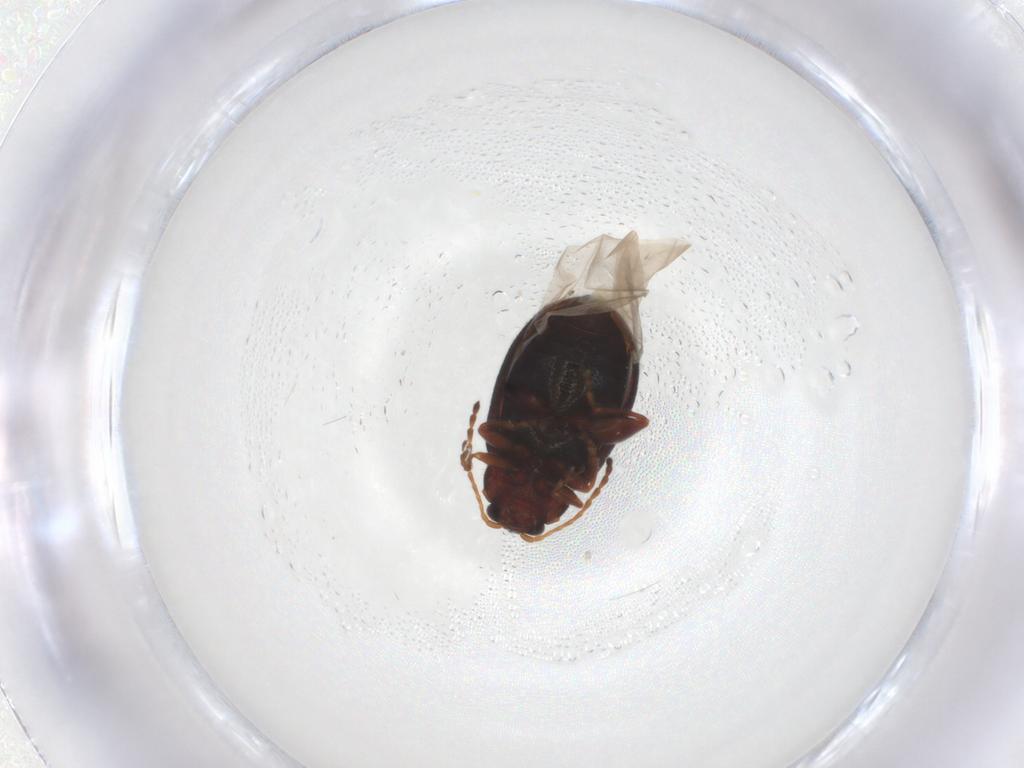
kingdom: Animalia
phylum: Arthropoda
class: Insecta
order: Coleoptera
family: Chrysomelidae
